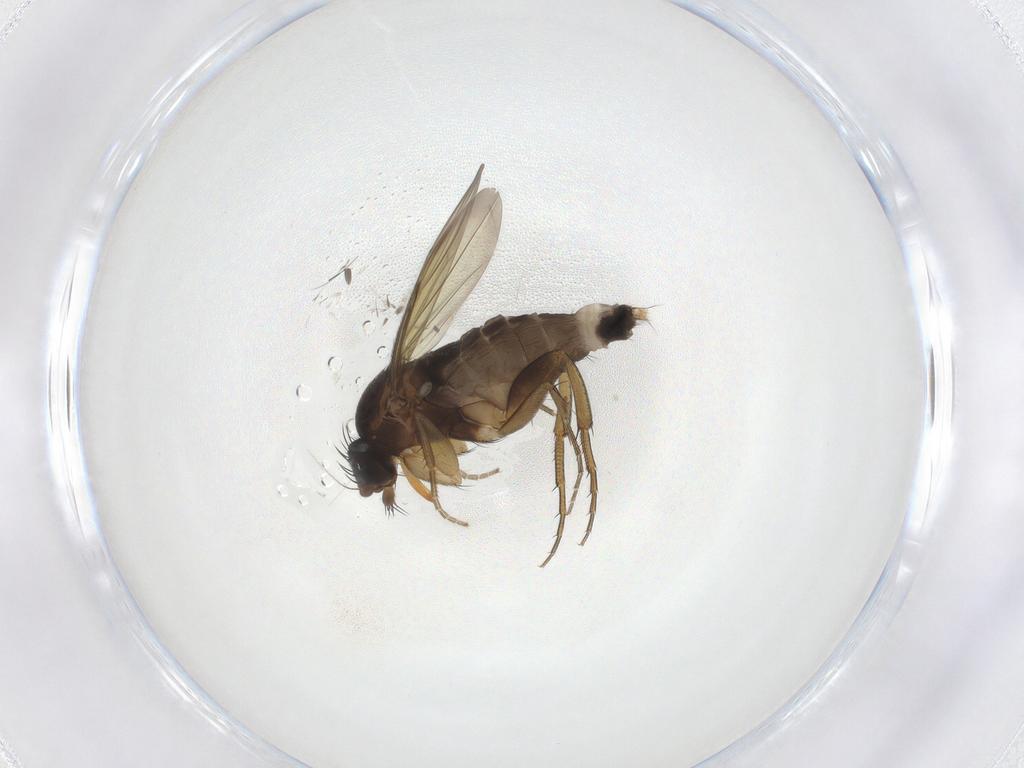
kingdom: Animalia
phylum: Arthropoda
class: Insecta
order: Diptera
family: Phoridae
